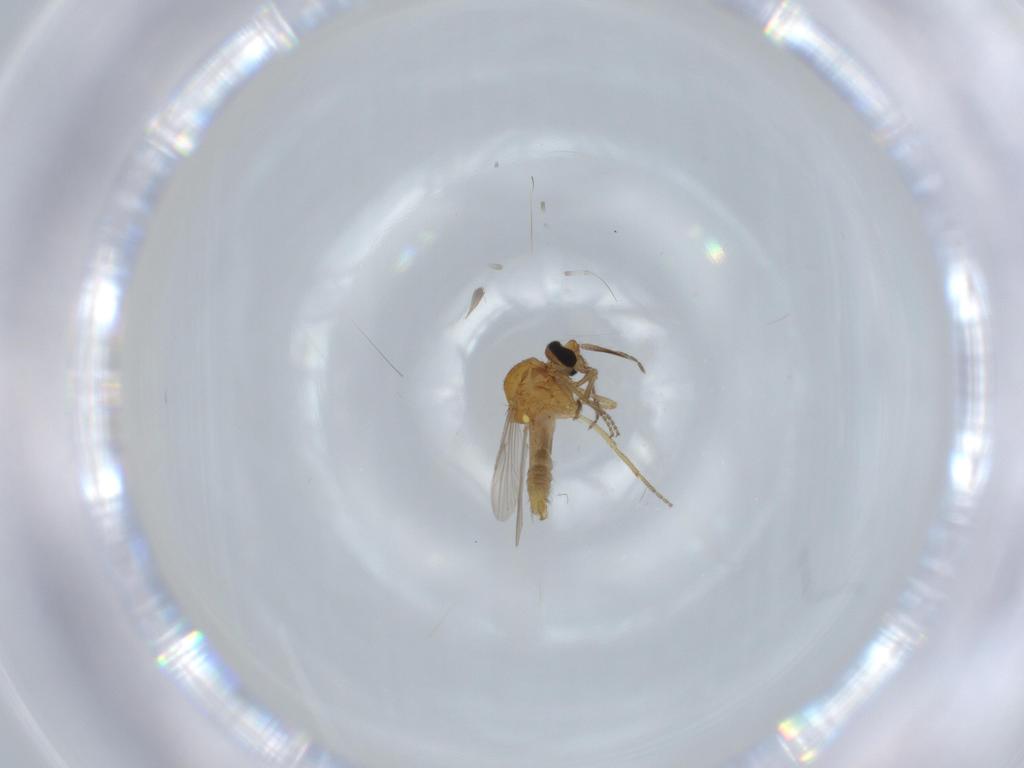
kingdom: Animalia
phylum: Arthropoda
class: Insecta
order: Diptera
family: Ceratopogonidae
